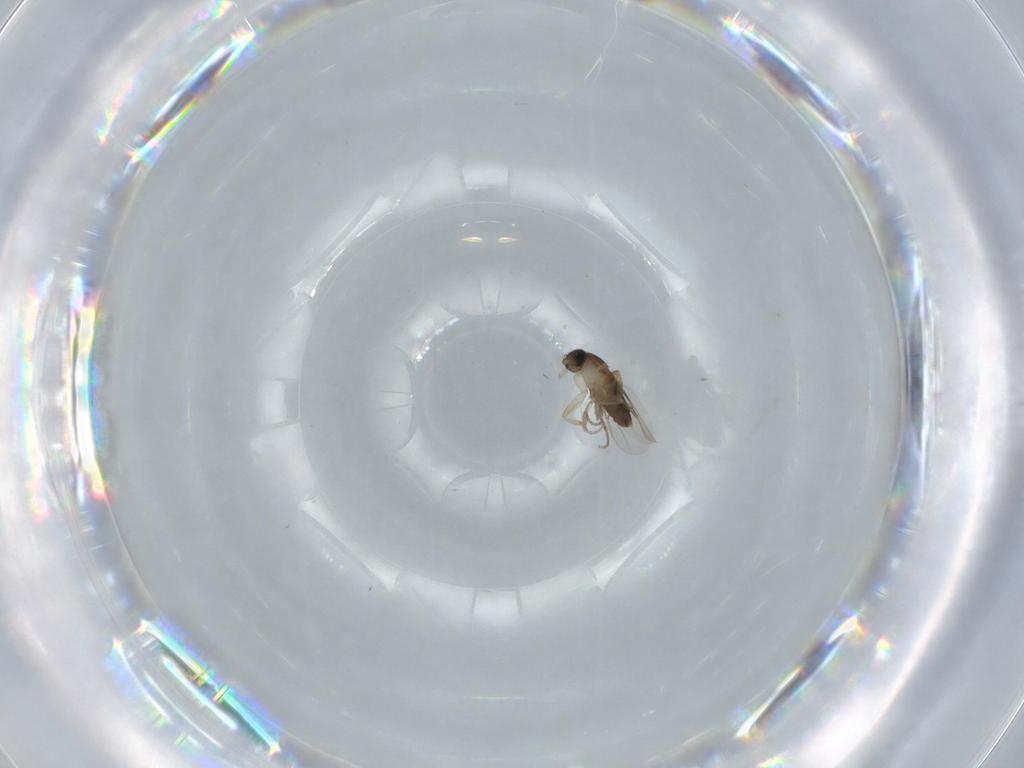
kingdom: Animalia
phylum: Arthropoda
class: Insecta
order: Diptera
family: Phoridae
